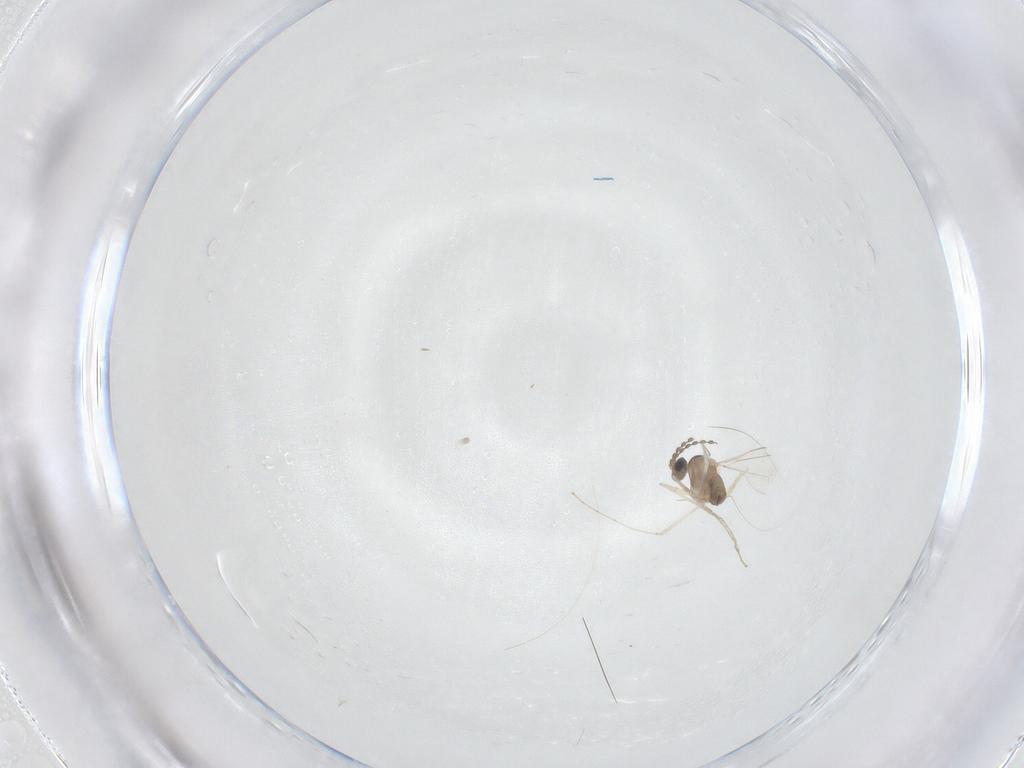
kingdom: Animalia
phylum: Arthropoda
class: Insecta
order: Diptera
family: Cecidomyiidae
